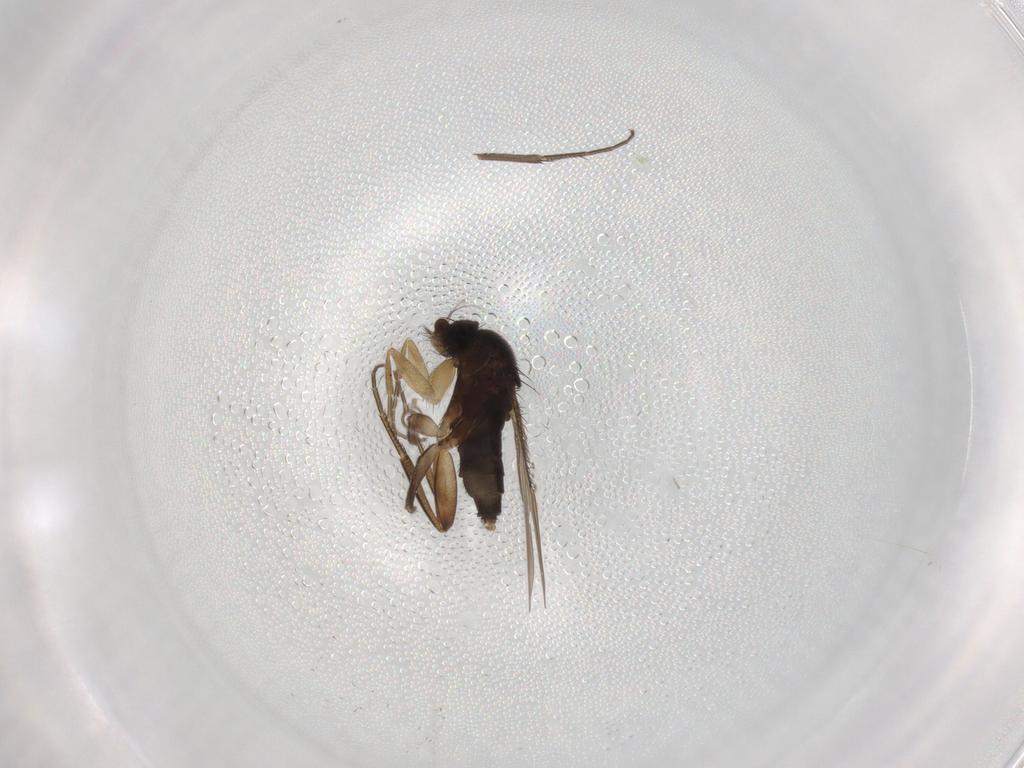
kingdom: Animalia
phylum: Arthropoda
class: Insecta
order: Diptera
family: Phoridae
